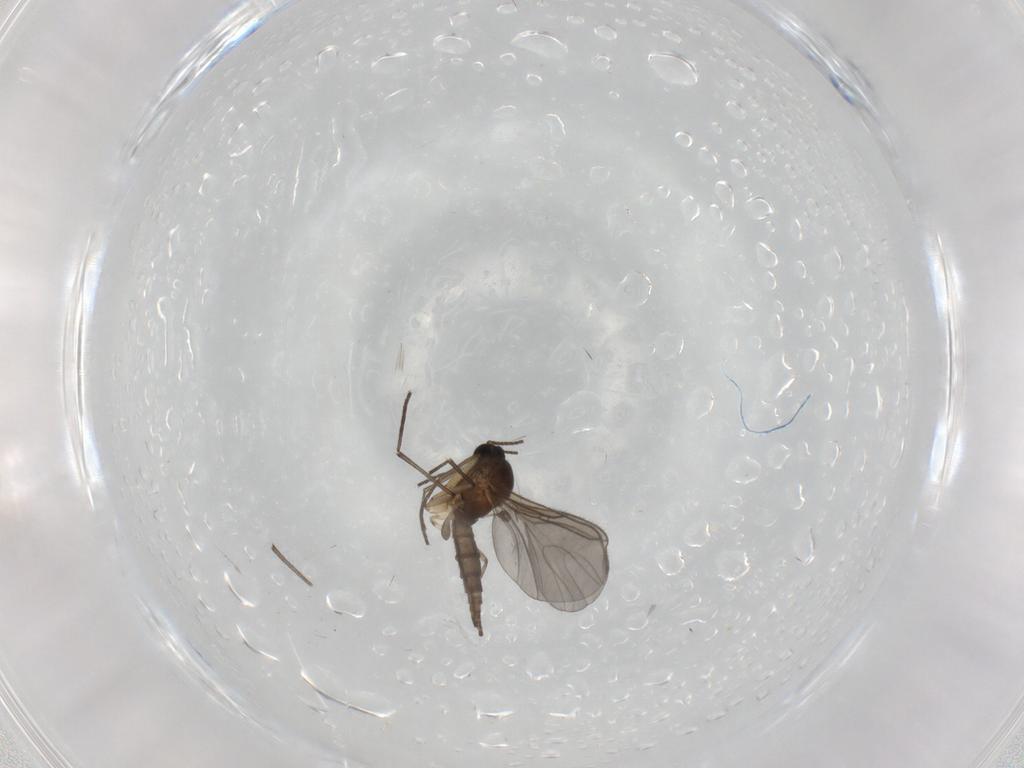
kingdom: Animalia
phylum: Arthropoda
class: Insecta
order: Diptera
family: Sciaridae
